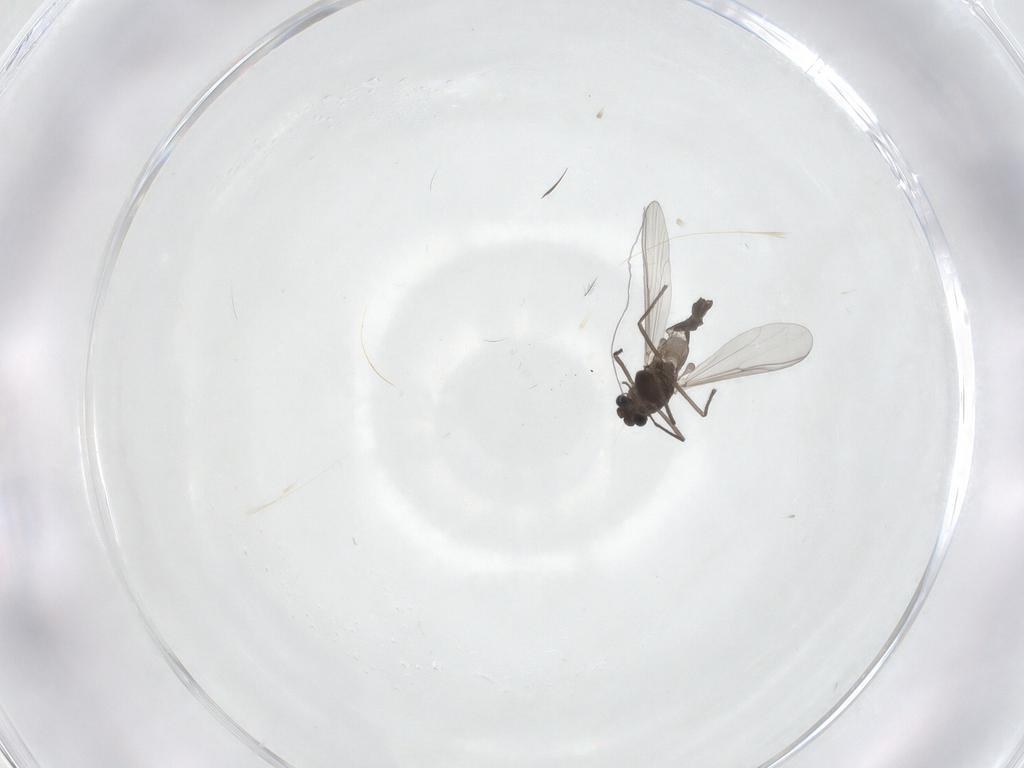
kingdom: Animalia
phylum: Arthropoda
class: Insecta
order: Diptera
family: Chironomidae
